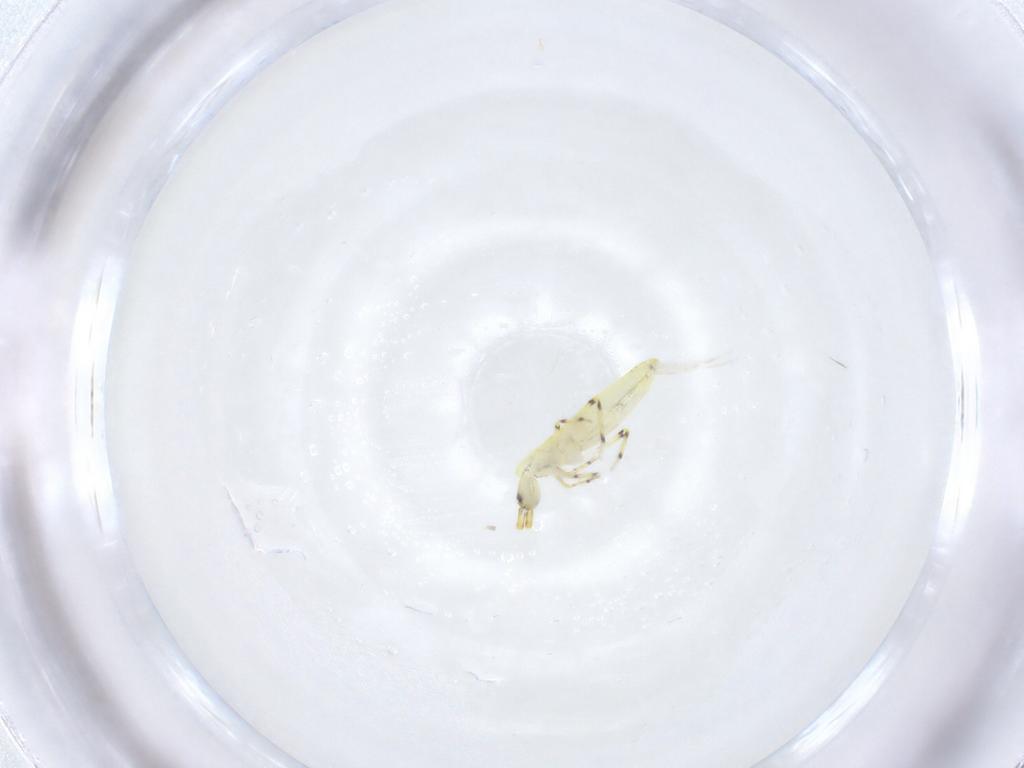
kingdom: Animalia
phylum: Arthropoda
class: Collembola
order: Entomobryomorpha
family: Entomobryidae
